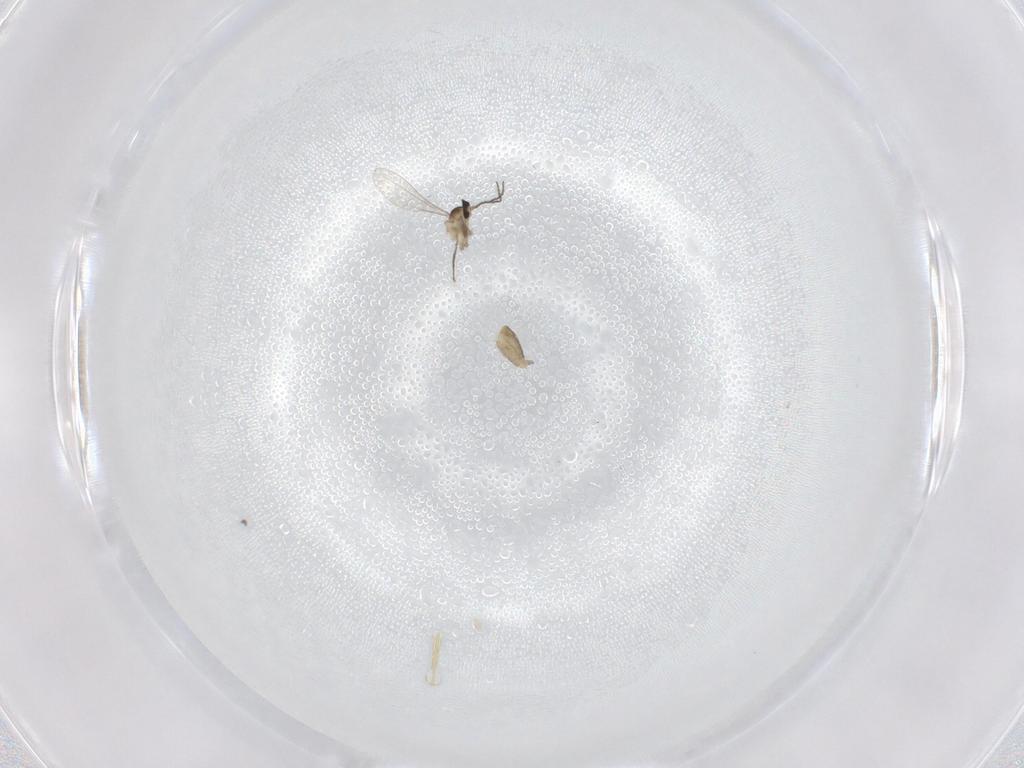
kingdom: Animalia
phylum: Arthropoda
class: Insecta
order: Diptera
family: Cecidomyiidae
